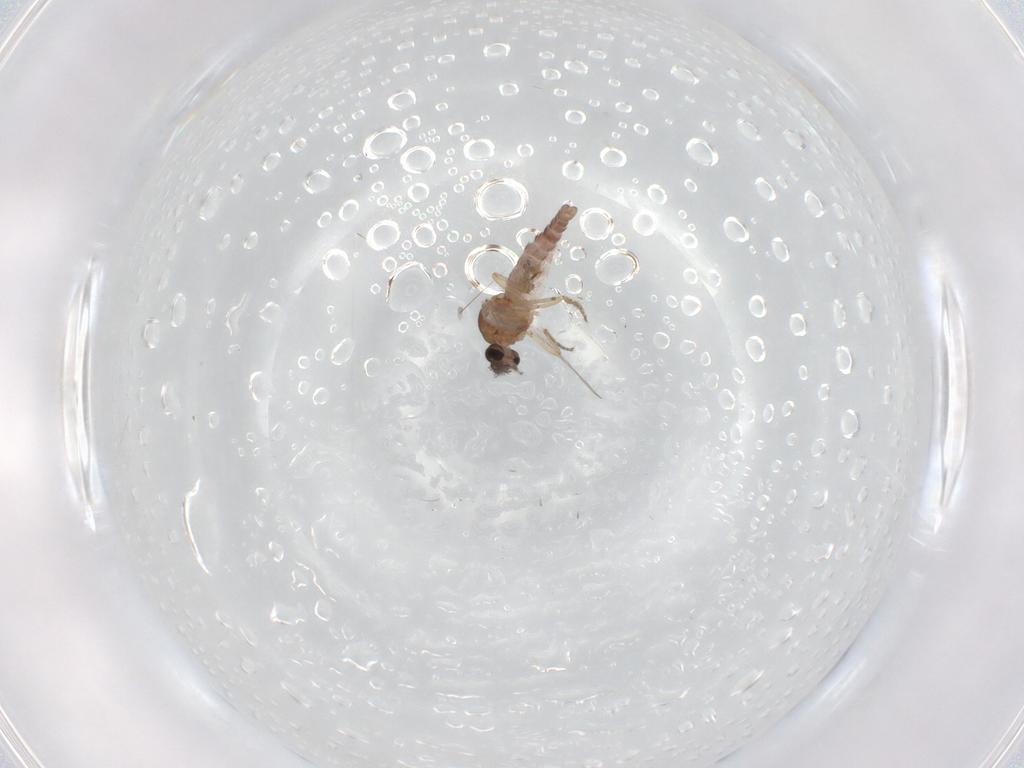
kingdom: Animalia
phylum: Arthropoda
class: Insecta
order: Diptera
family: Ceratopogonidae
